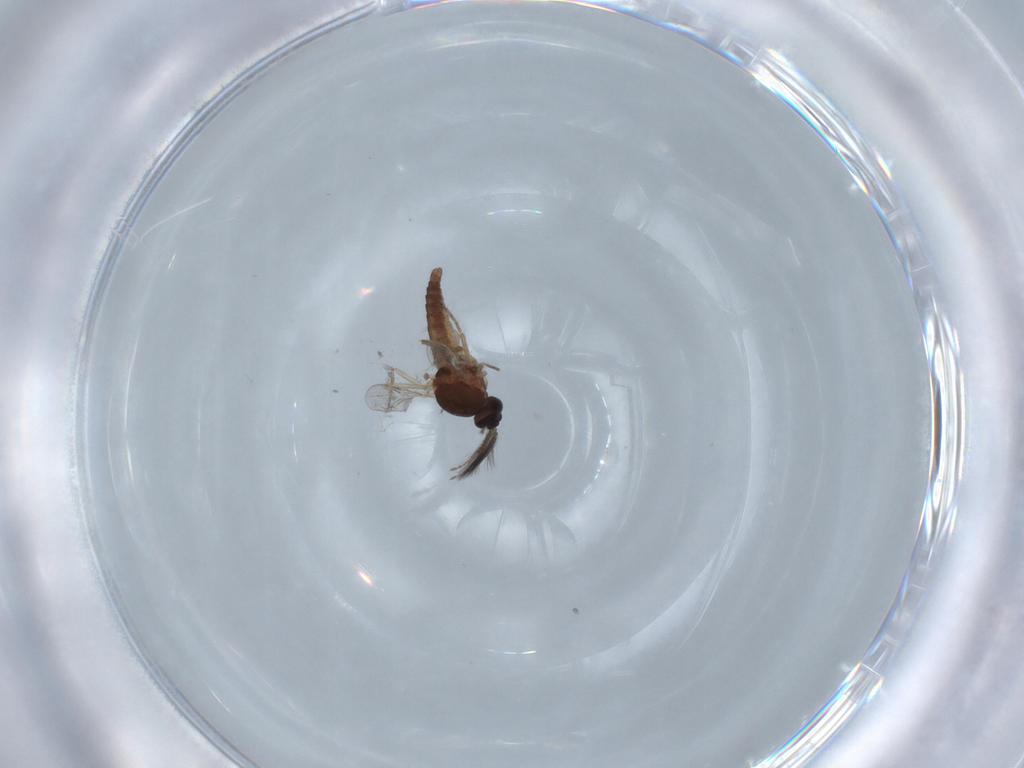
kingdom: Animalia
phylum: Arthropoda
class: Insecta
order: Diptera
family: Ceratopogonidae
